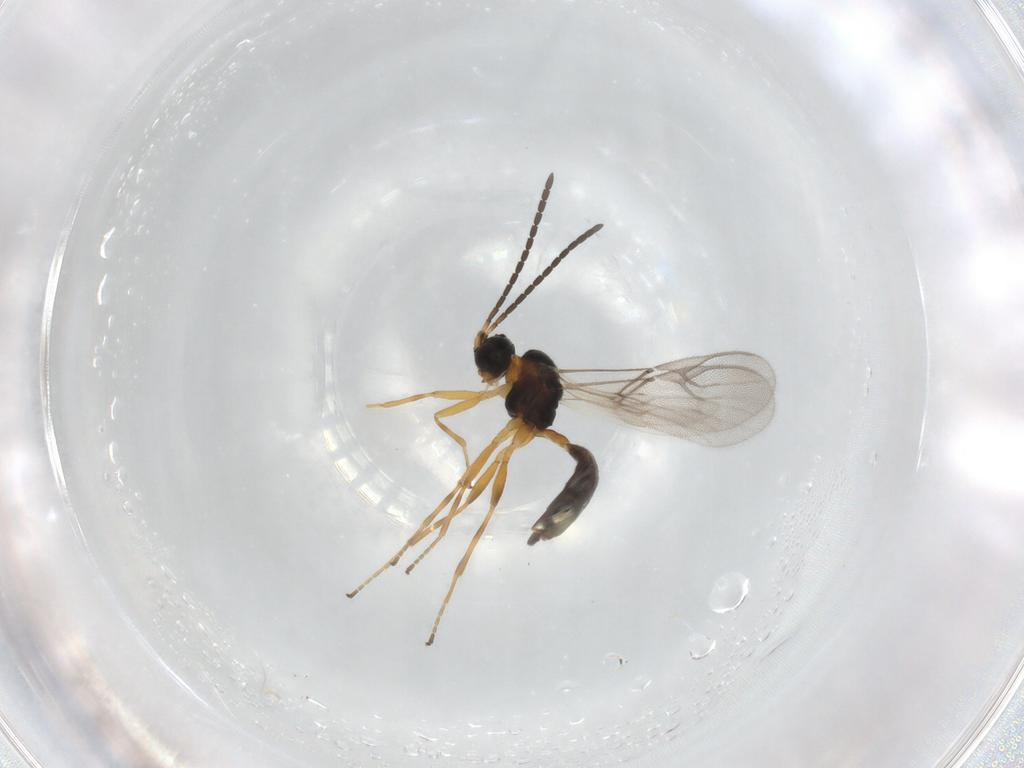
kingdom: Animalia
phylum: Arthropoda
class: Insecta
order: Hymenoptera
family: Braconidae
